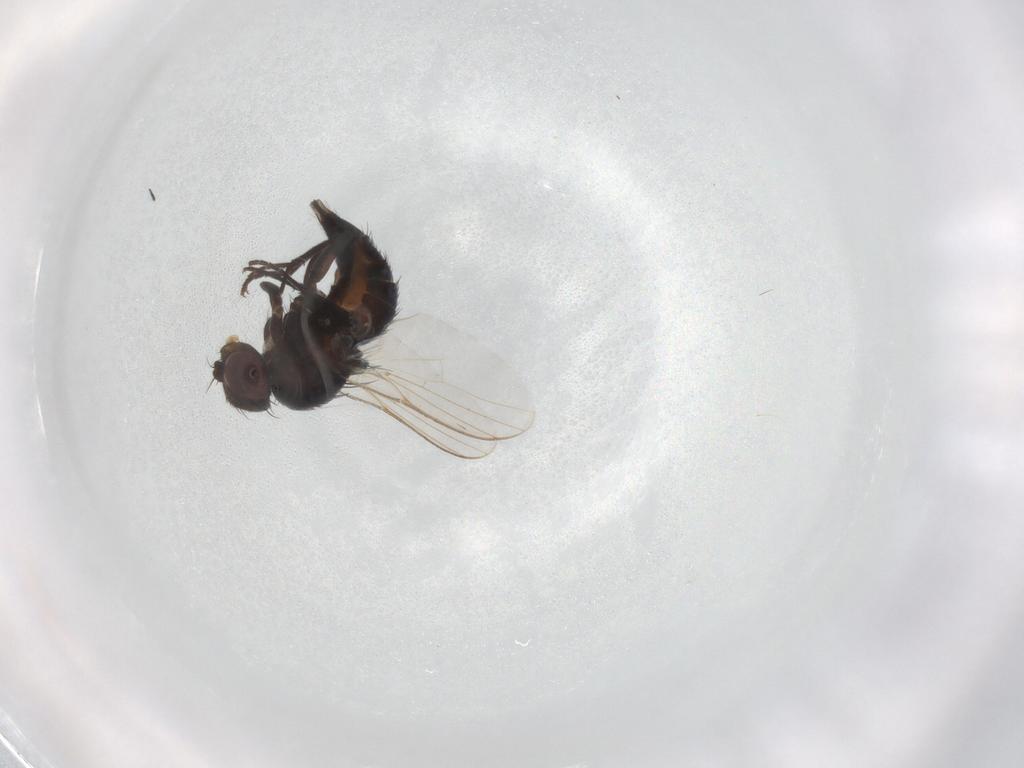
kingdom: Animalia
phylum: Arthropoda
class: Insecta
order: Diptera
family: Agromyzidae
